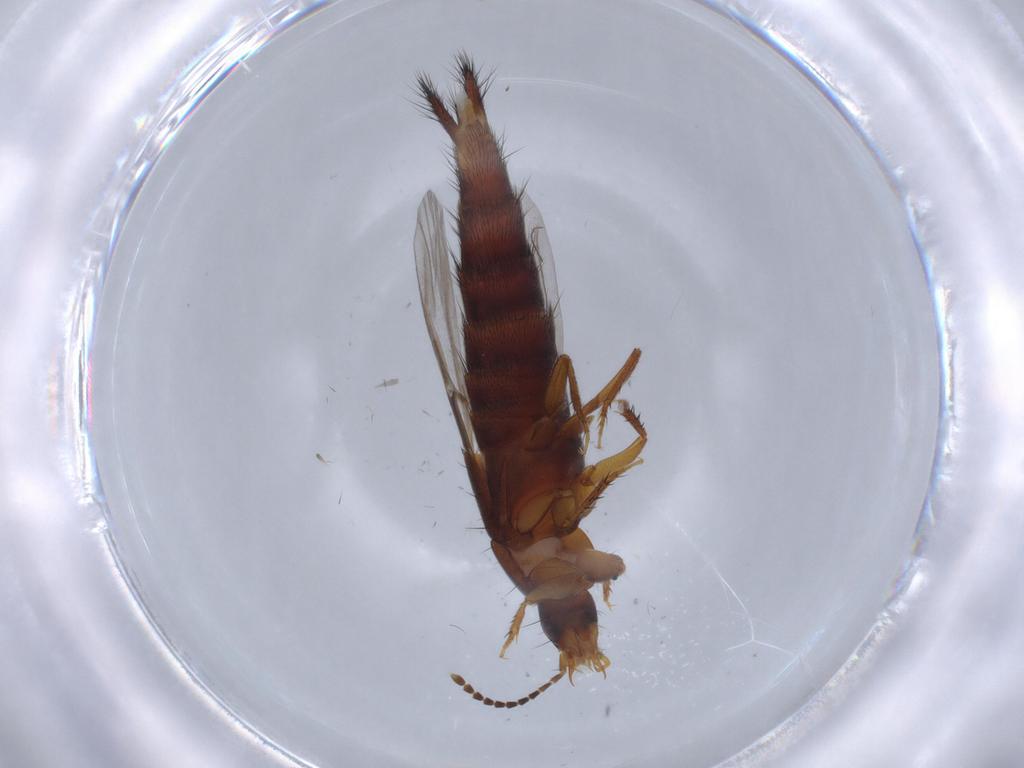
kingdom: Animalia
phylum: Arthropoda
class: Insecta
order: Coleoptera
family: Staphylinidae
